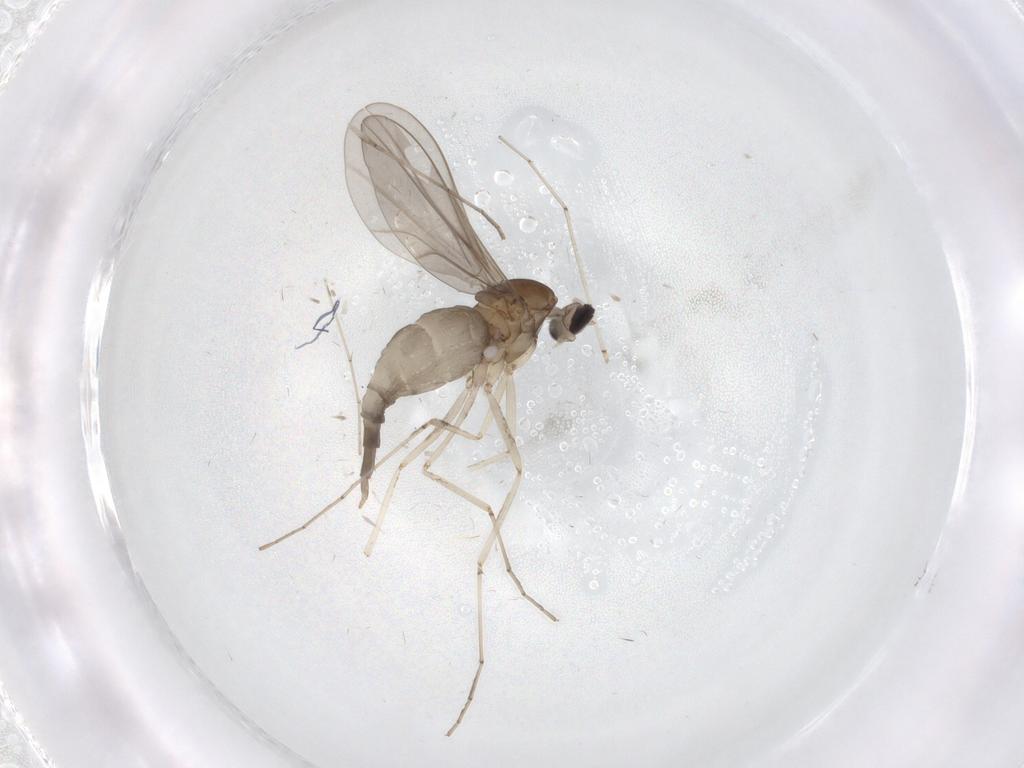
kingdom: Animalia
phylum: Arthropoda
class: Insecta
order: Diptera
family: Cecidomyiidae
